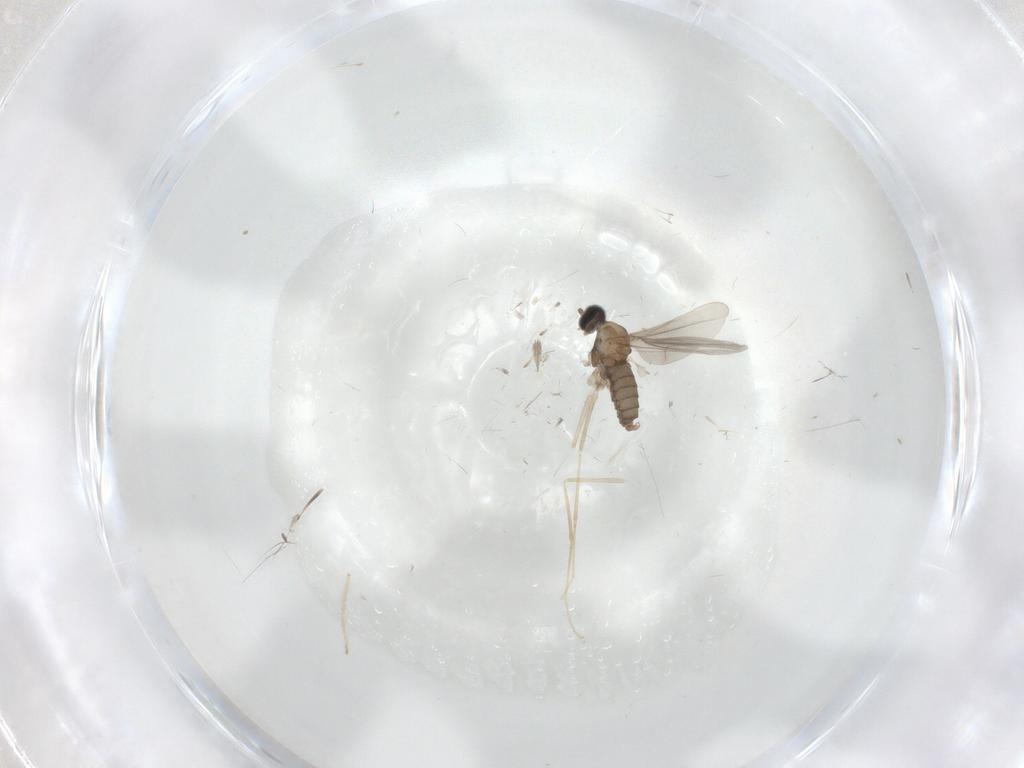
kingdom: Animalia
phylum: Arthropoda
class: Insecta
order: Diptera
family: Cecidomyiidae
